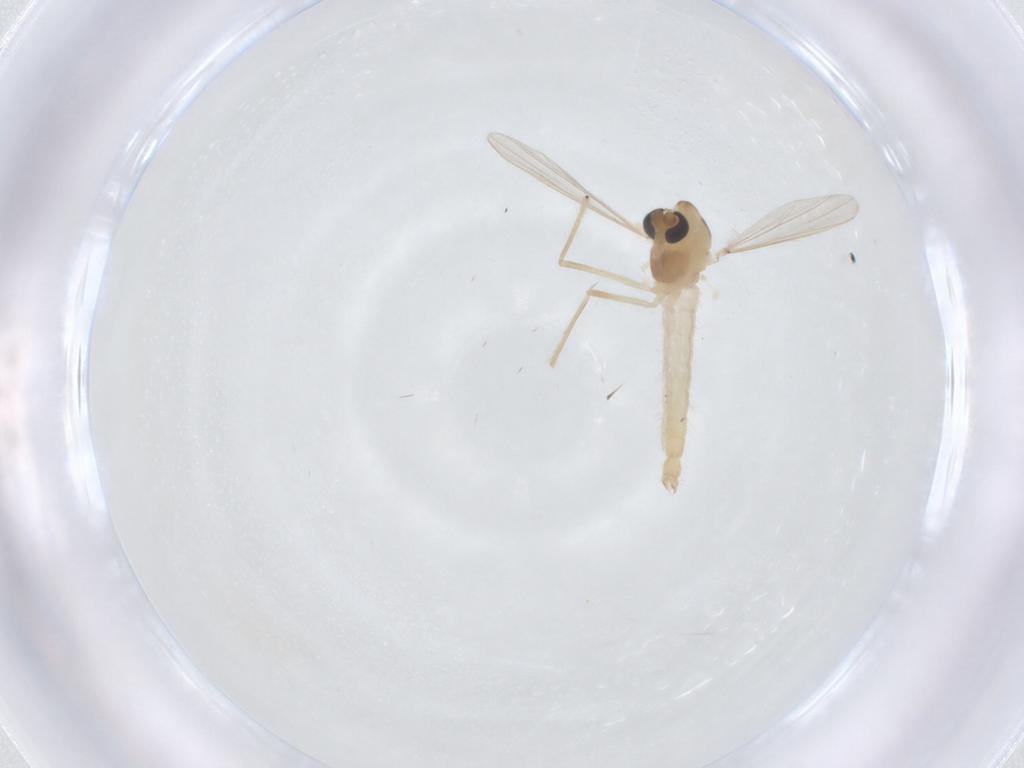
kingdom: Animalia
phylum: Arthropoda
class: Insecta
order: Diptera
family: Chironomidae
